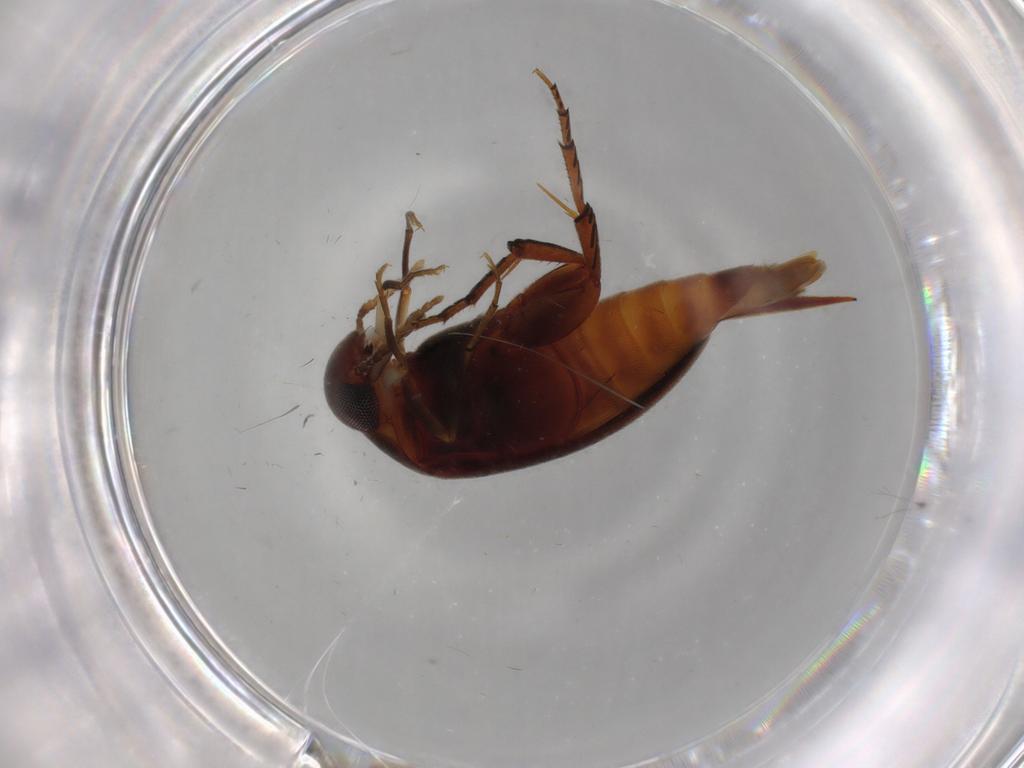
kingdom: Animalia
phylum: Arthropoda
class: Insecta
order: Coleoptera
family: Mordellidae
